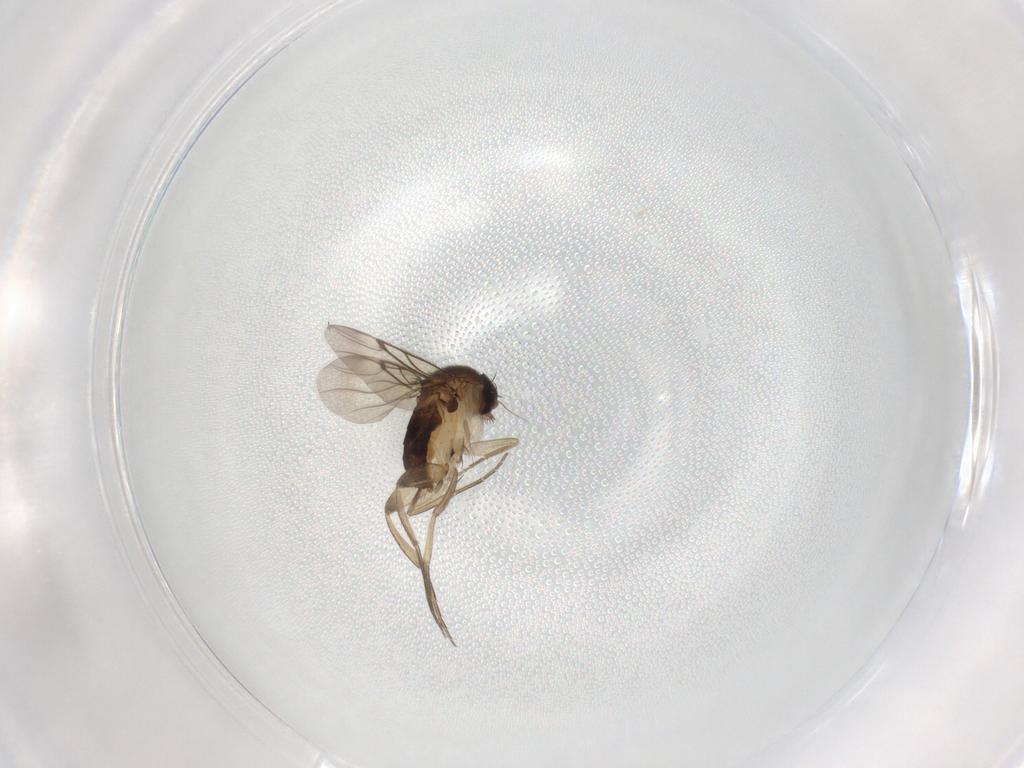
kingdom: Animalia
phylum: Arthropoda
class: Insecta
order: Diptera
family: Phoridae
